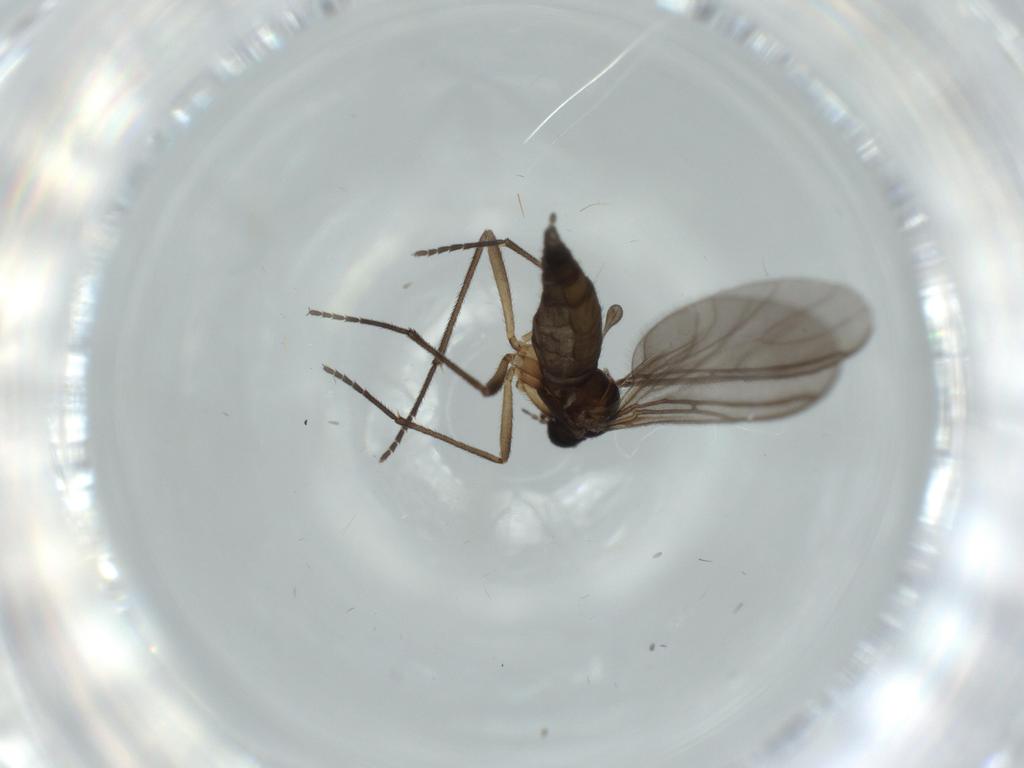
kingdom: Animalia
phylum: Arthropoda
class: Insecta
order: Diptera
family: Sciaridae
